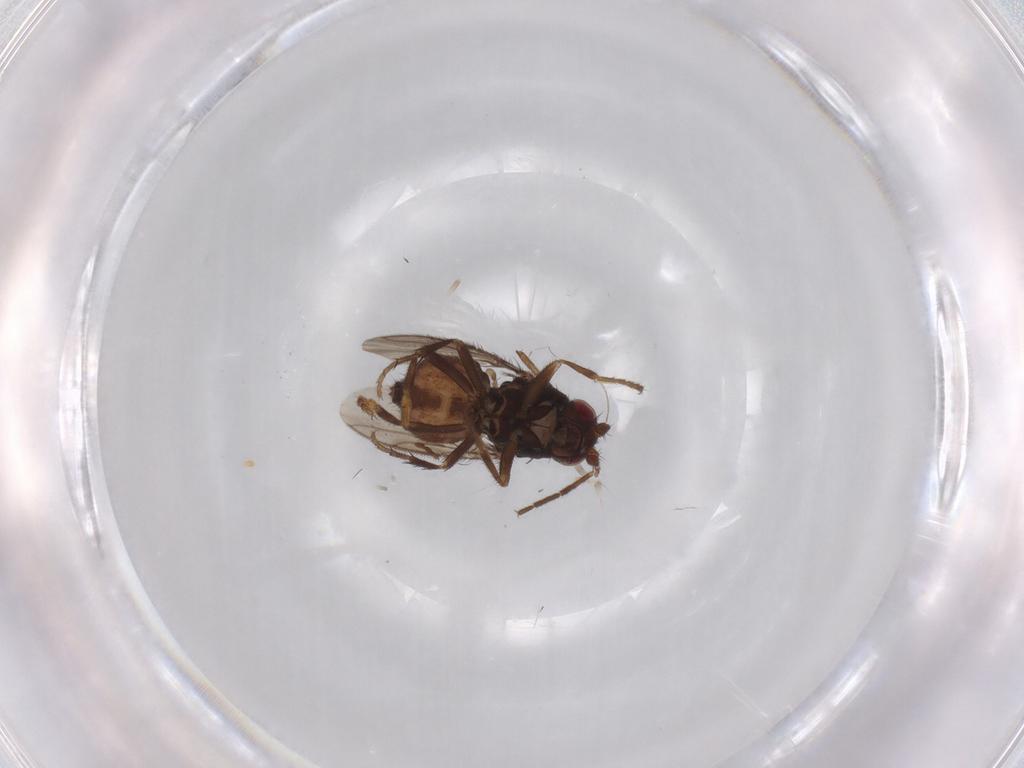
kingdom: Animalia
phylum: Arthropoda
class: Insecta
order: Diptera
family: Sphaeroceridae
